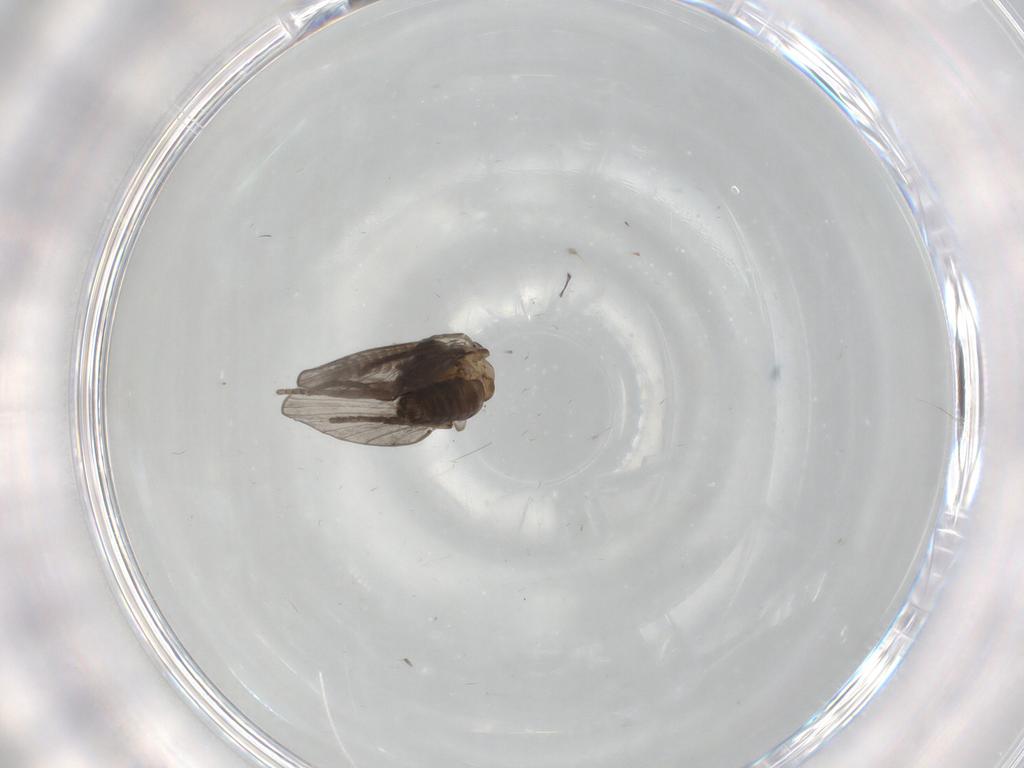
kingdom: Animalia
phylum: Arthropoda
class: Insecta
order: Diptera
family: Psychodidae
